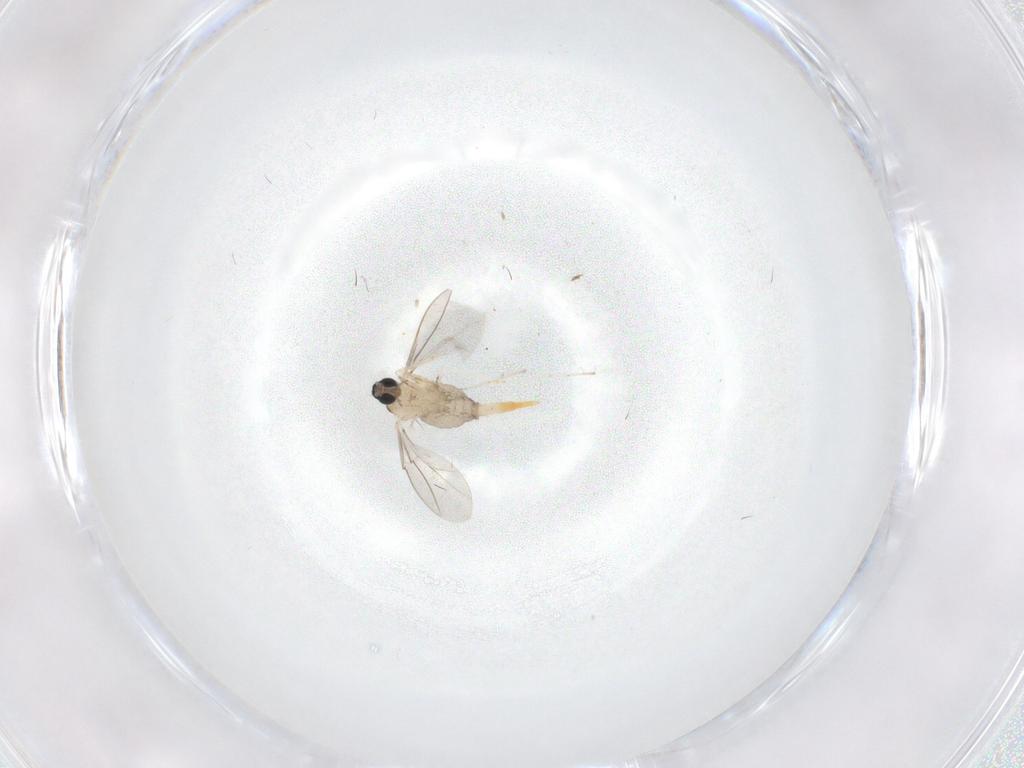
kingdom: Animalia
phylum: Arthropoda
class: Insecta
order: Diptera
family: Cecidomyiidae
